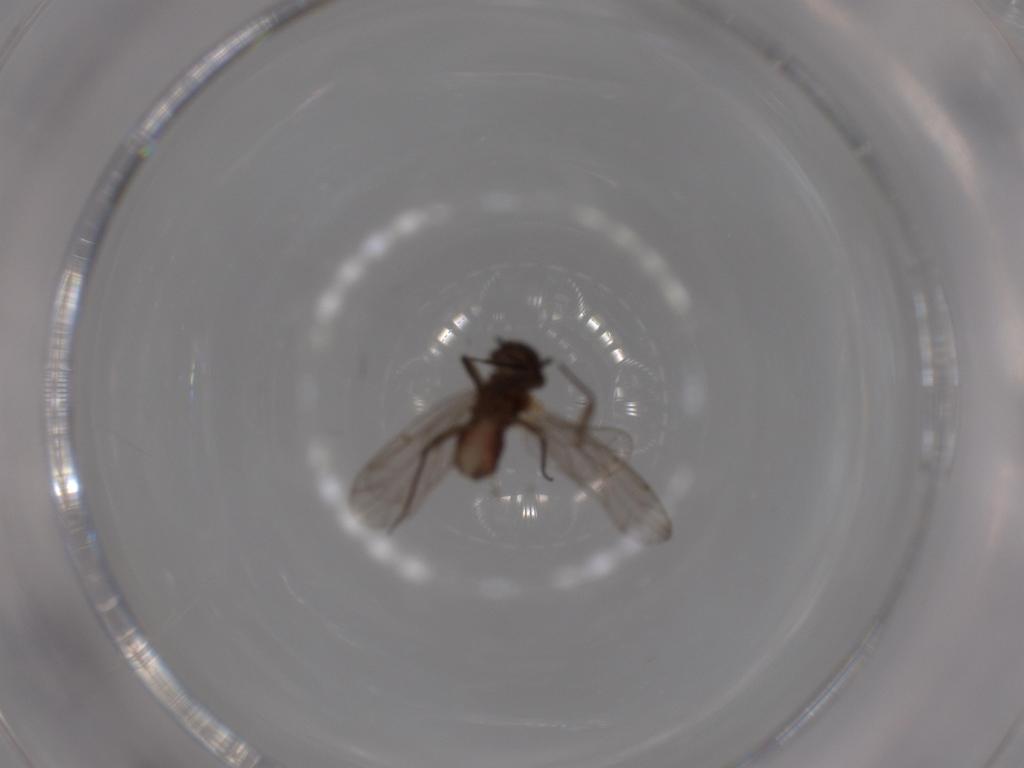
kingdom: Animalia
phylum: Arthropoda
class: Insecta
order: Psocodea
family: Ectopsocidae
